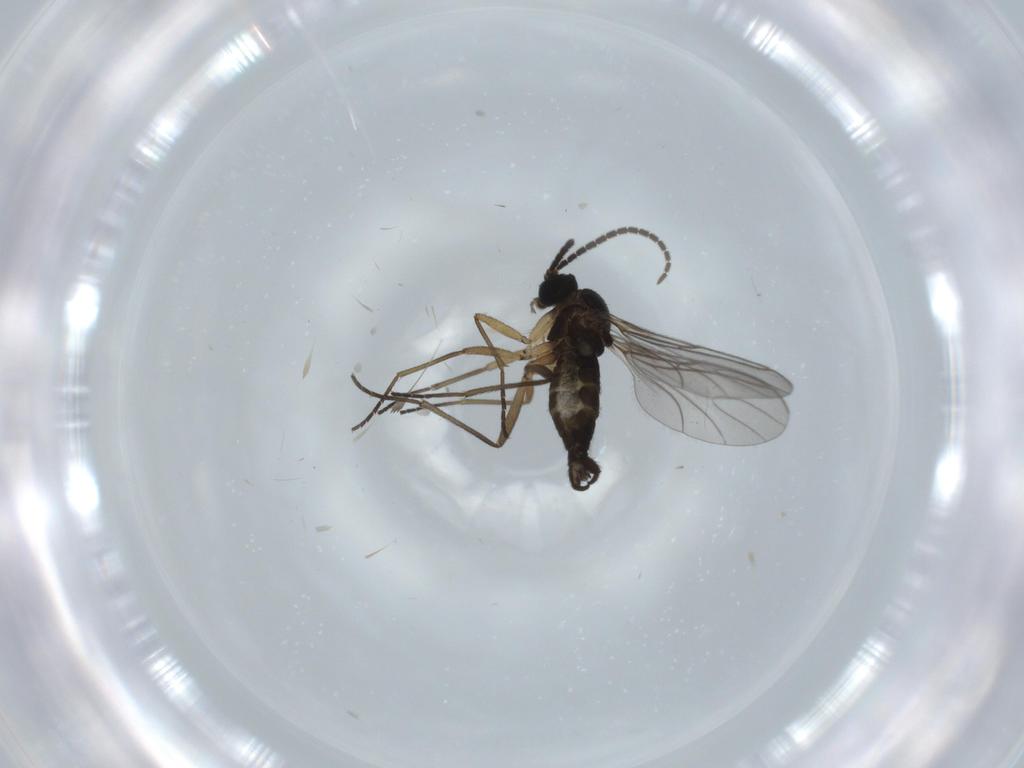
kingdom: Animalia
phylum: Arthropoda
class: Insecta
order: Diptera
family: Sciaridae
